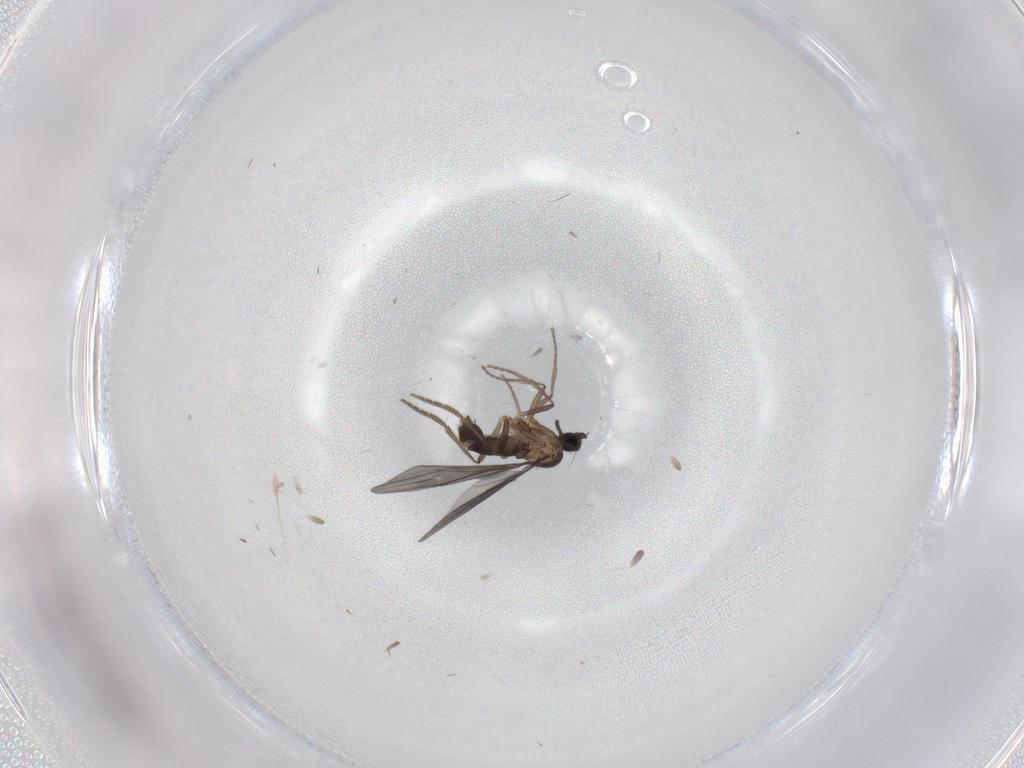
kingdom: Animalia
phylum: Arthropoda
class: Insecta
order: Diptera
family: Phoridae
